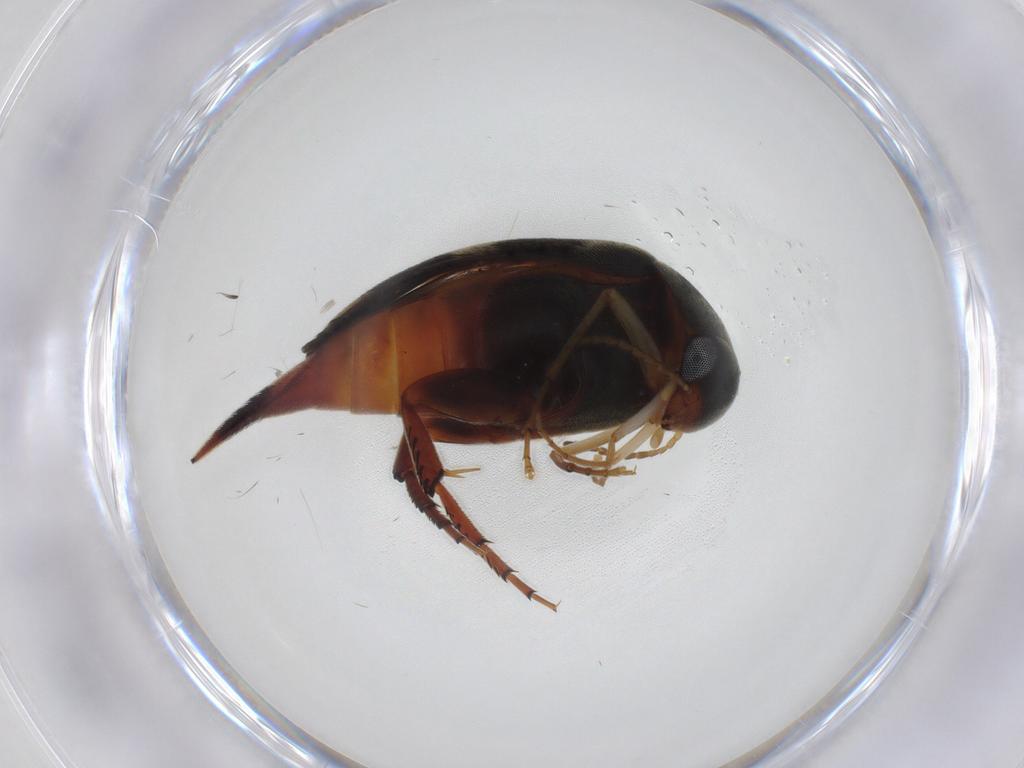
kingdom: Animalia
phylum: Arthropoda
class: Insecta
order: Coleoptera
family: Mordellidae
